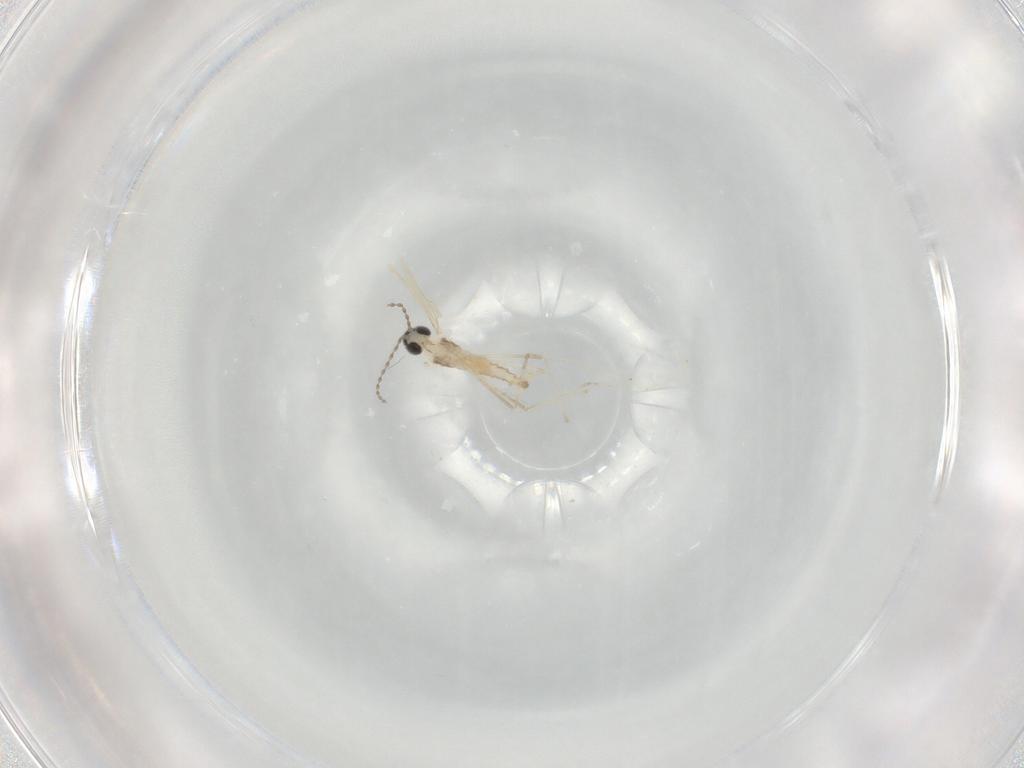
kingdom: Animalia
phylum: Arthropoda
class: Insecta
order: Diptera
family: Cecidomyiidae
